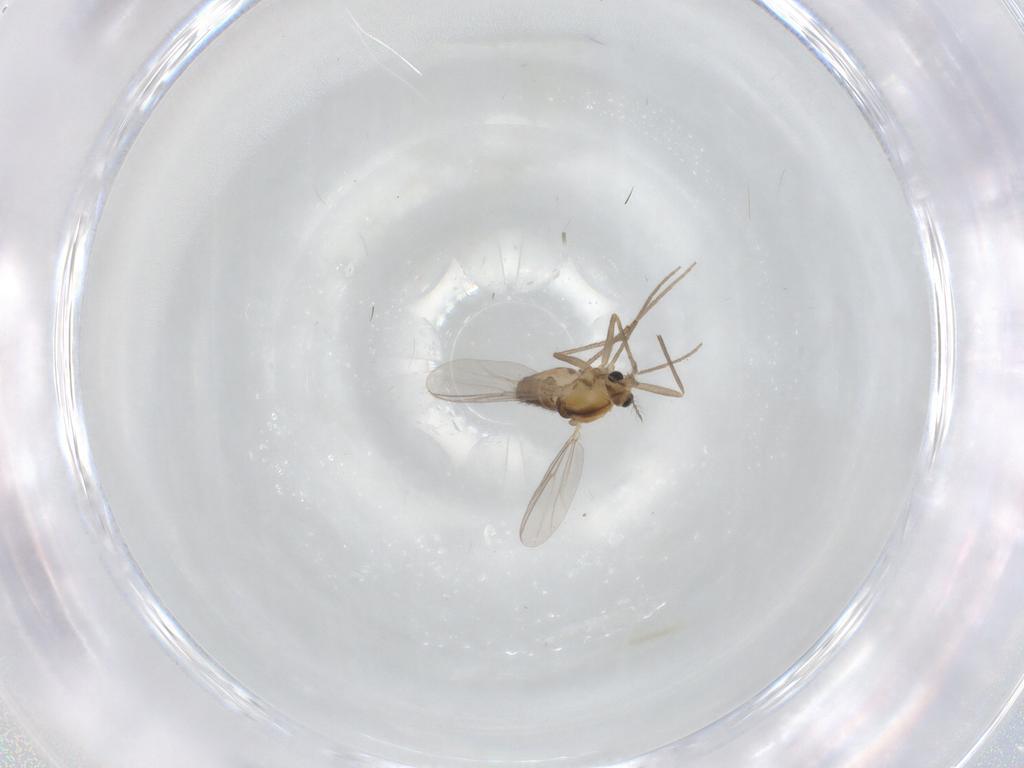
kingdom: Animalia
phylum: Arthropoda
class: Insecta
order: Diptera
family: Chironomidae
